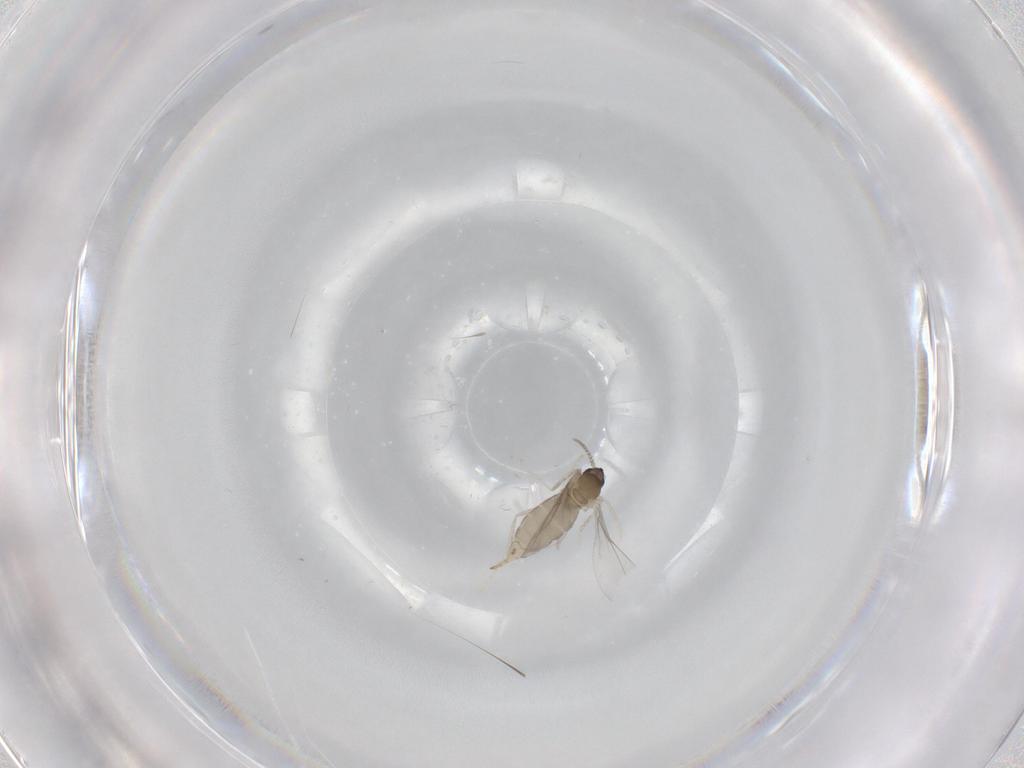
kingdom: Animalia
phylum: Arthropoda
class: Insecta
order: Diptera
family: Cecidomyiidae
